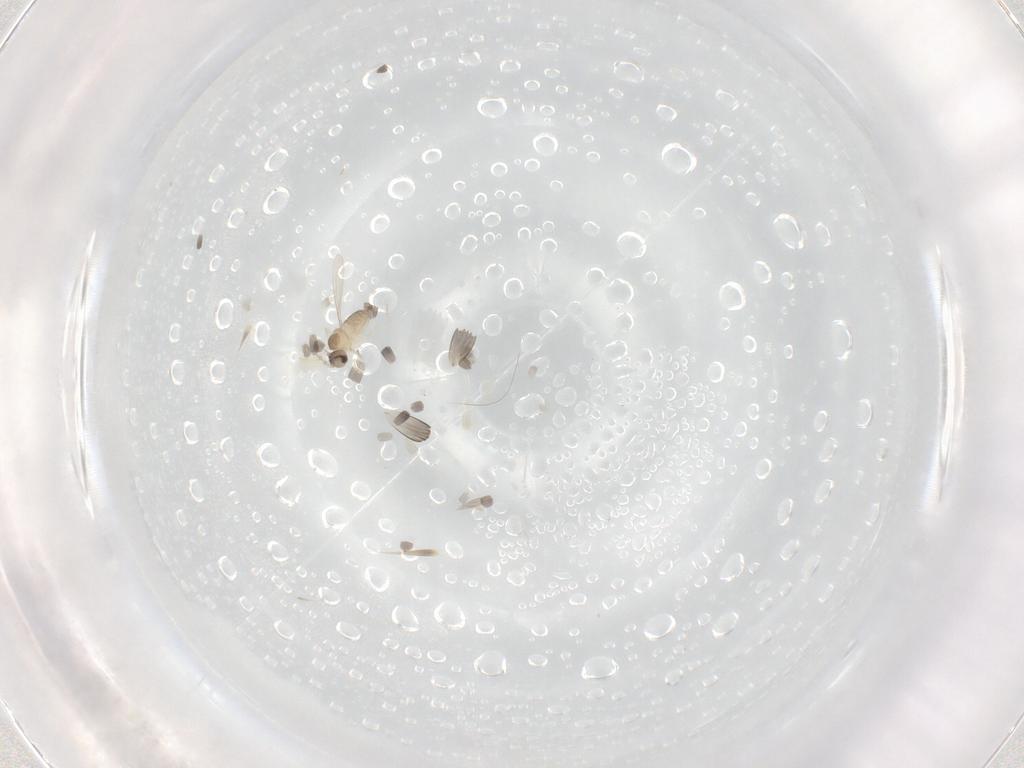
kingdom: Animalia
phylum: Arthropoda
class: Insecta
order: Diptera
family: Cecidomyiidae
